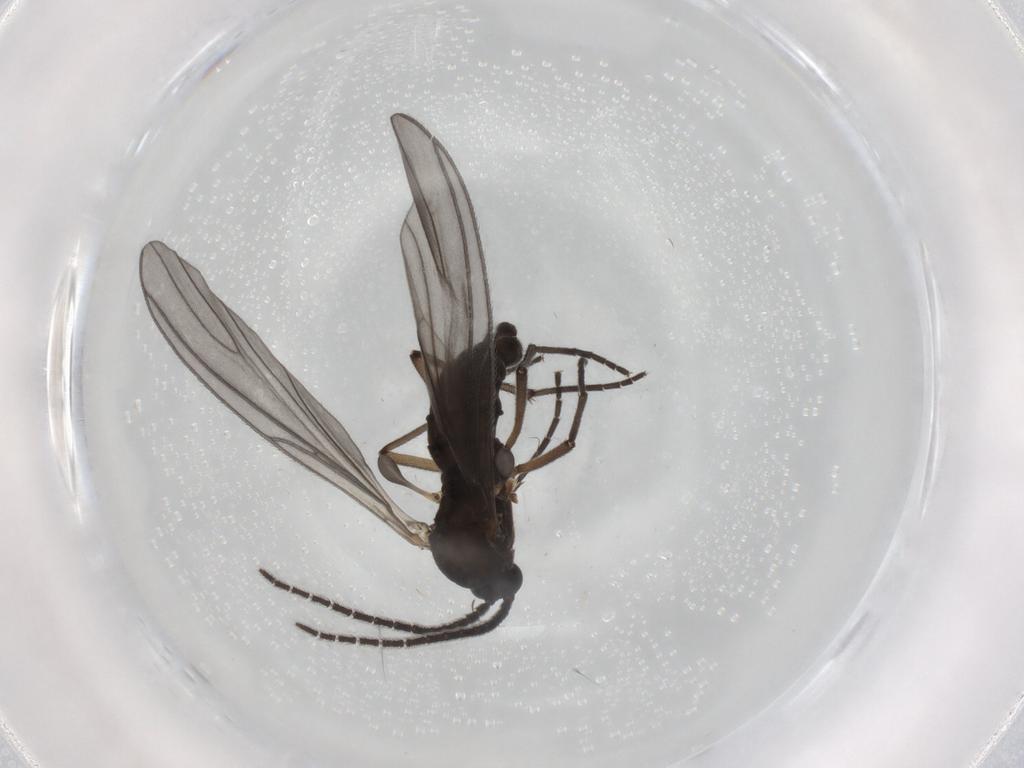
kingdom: Animalia
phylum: Arthropoda
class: Insecta
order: Diptera
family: Sciaridae
